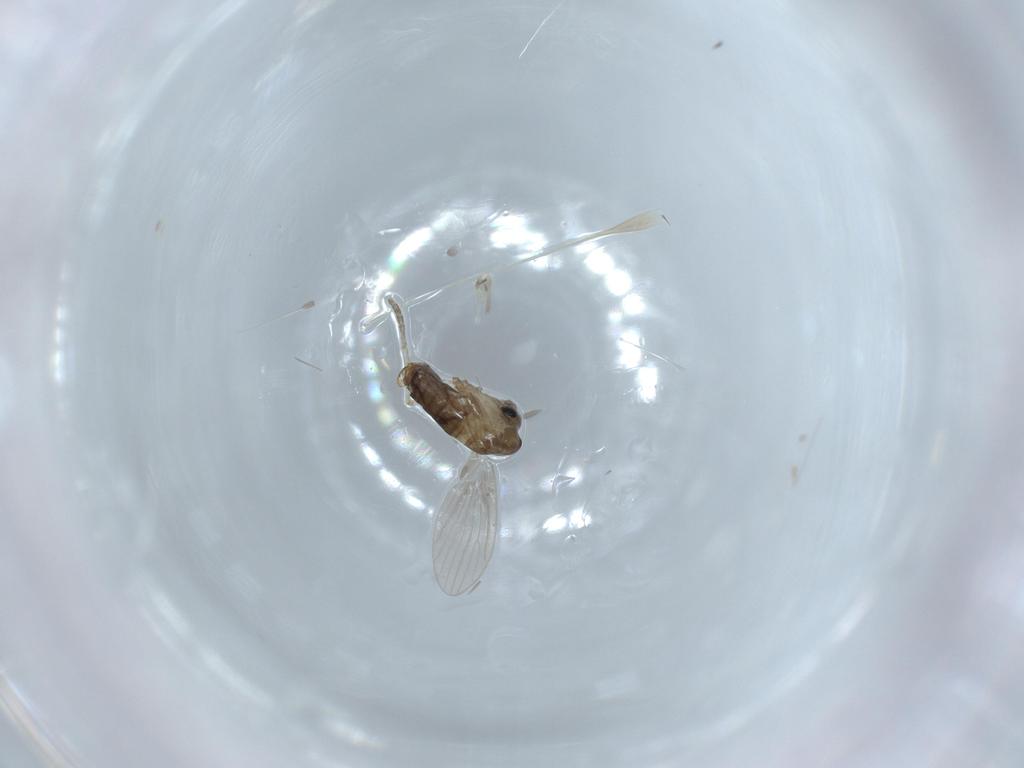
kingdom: Animalia
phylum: Arthropoda
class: Insecta
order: Diptera
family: Psychodidae
